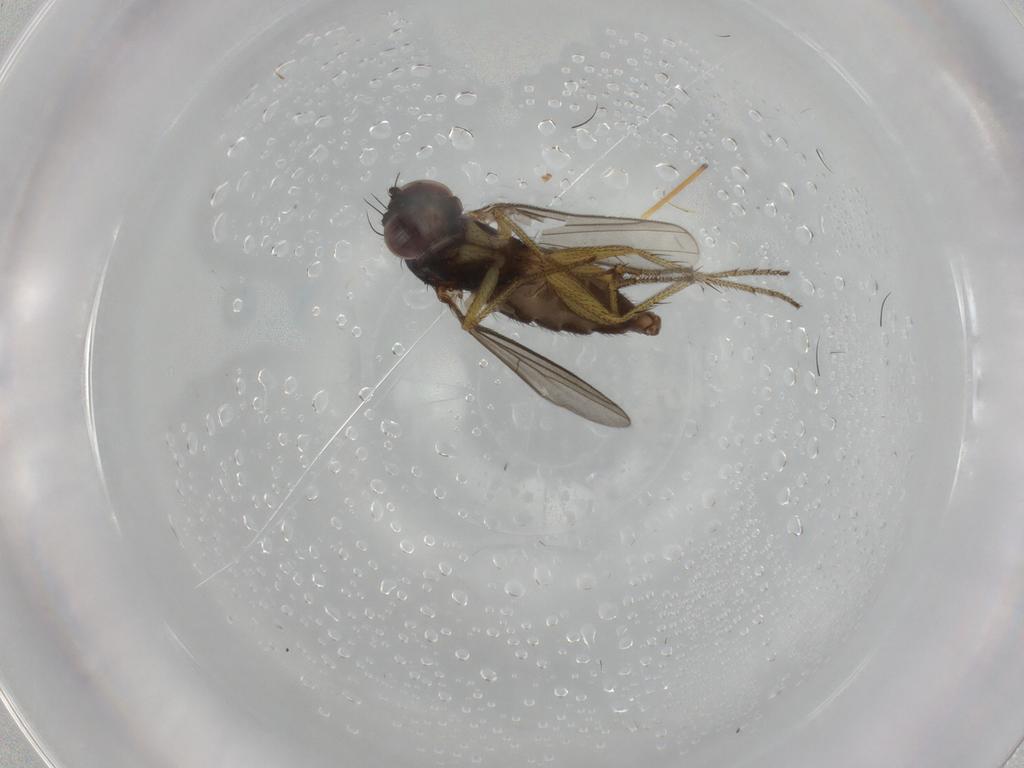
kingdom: Animalia
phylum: Arthropoda
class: Insecta
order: Diptera
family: Dolichopodidae
